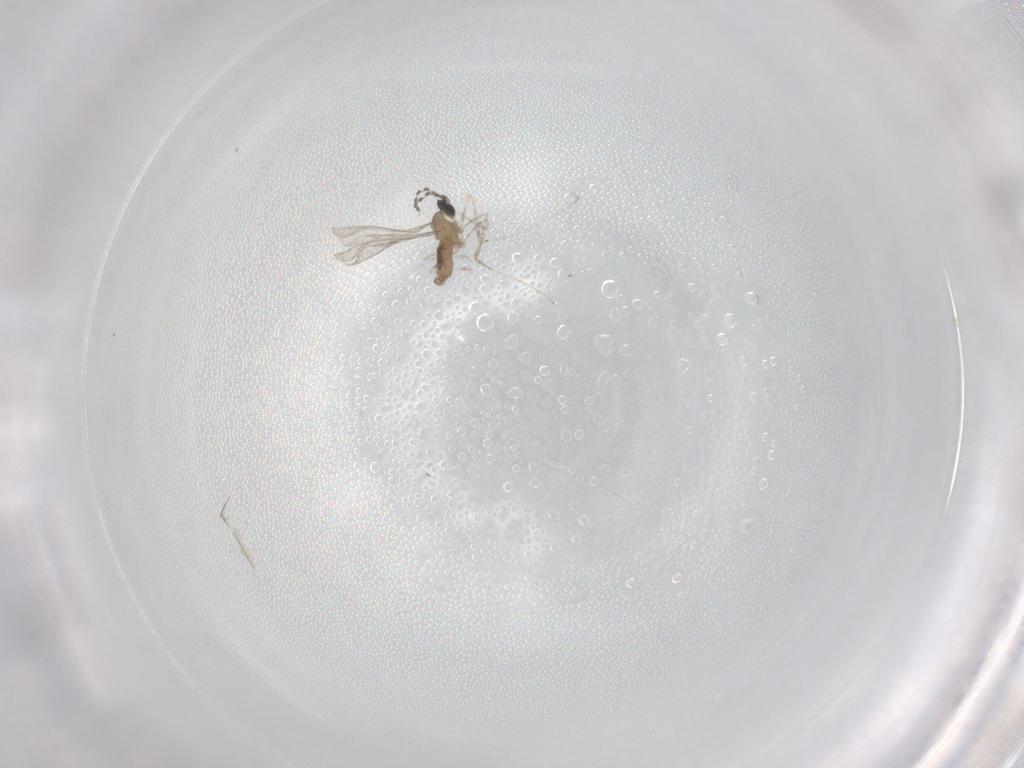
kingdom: Animalia
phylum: Arthropoda
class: Insecta
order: Diptera
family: Cecidomyiidae
